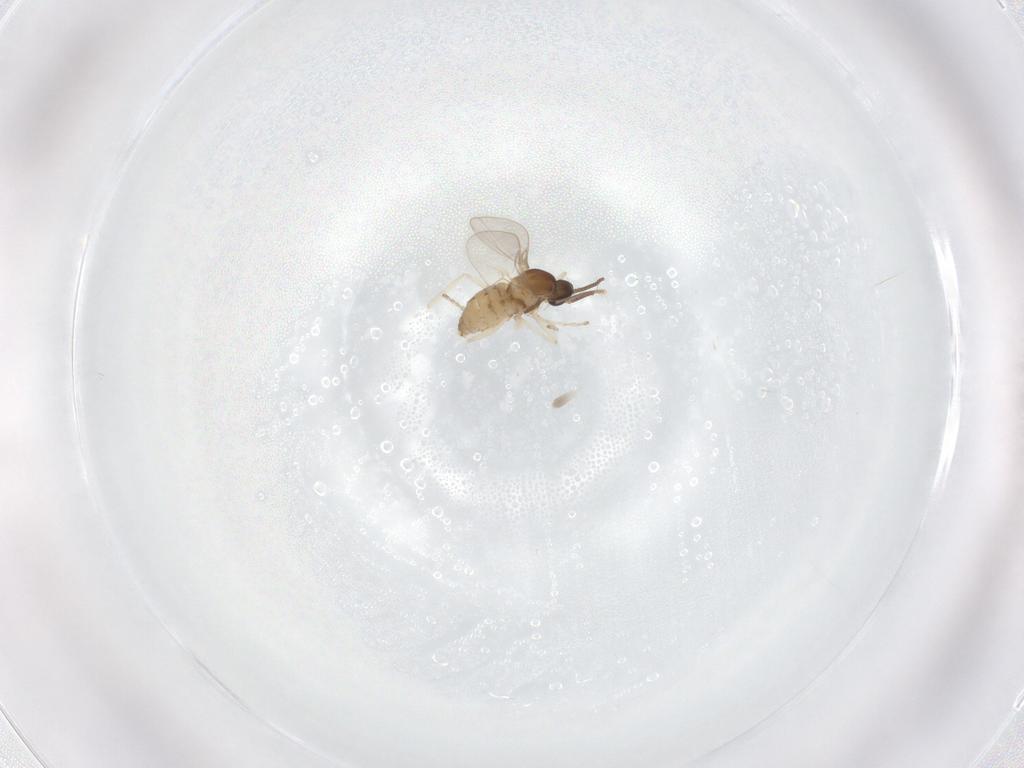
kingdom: Animalia
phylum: Arthropoda
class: Insecta
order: Diptera
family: Cecidomyiidae
